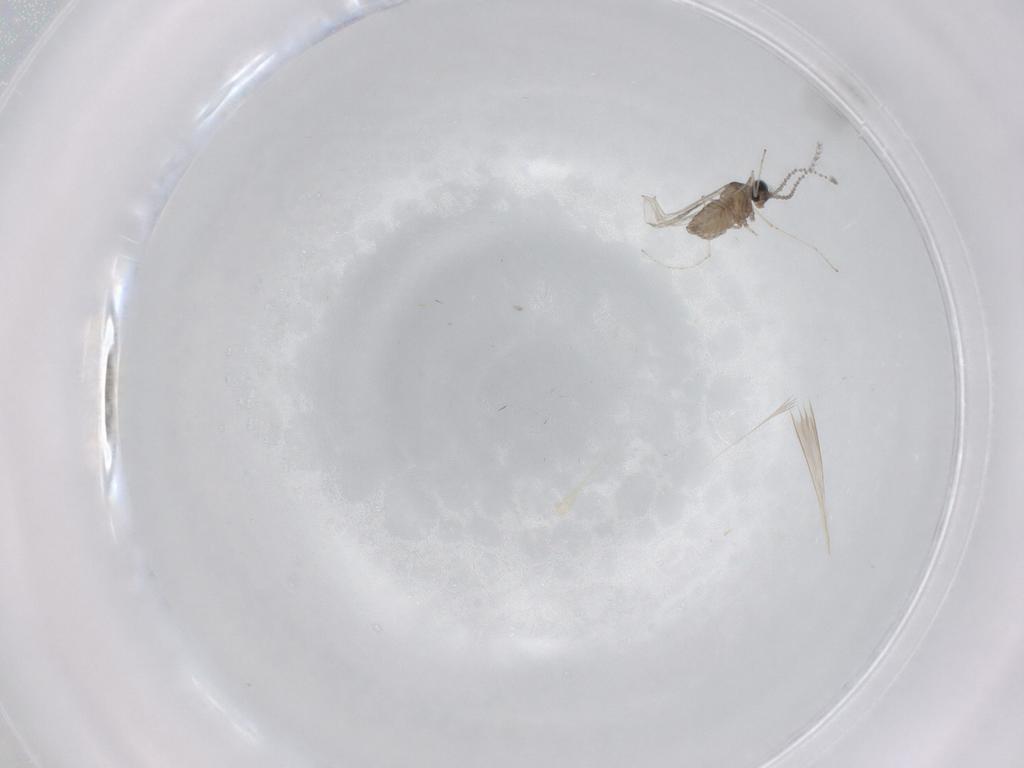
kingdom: Animalia
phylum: Arthropoda
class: Insecta
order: Diptera
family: Cecidomyiidae
